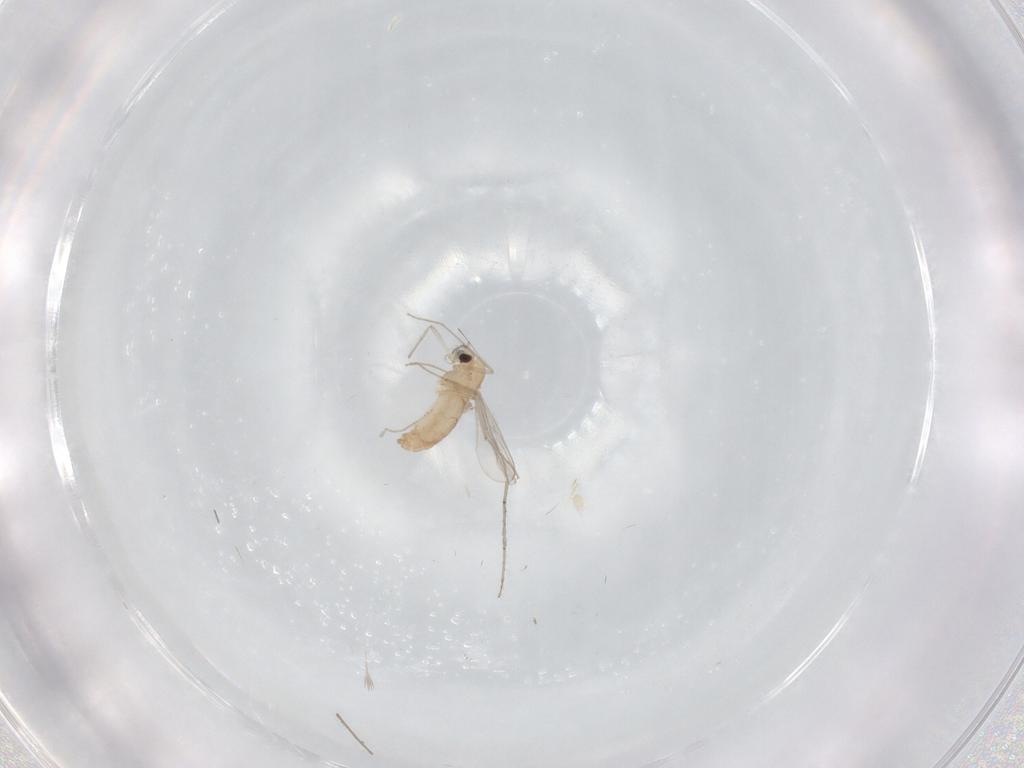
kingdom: Animalia
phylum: Arthropoda
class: Insecta
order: Diptera
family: Cecidomyiidae
